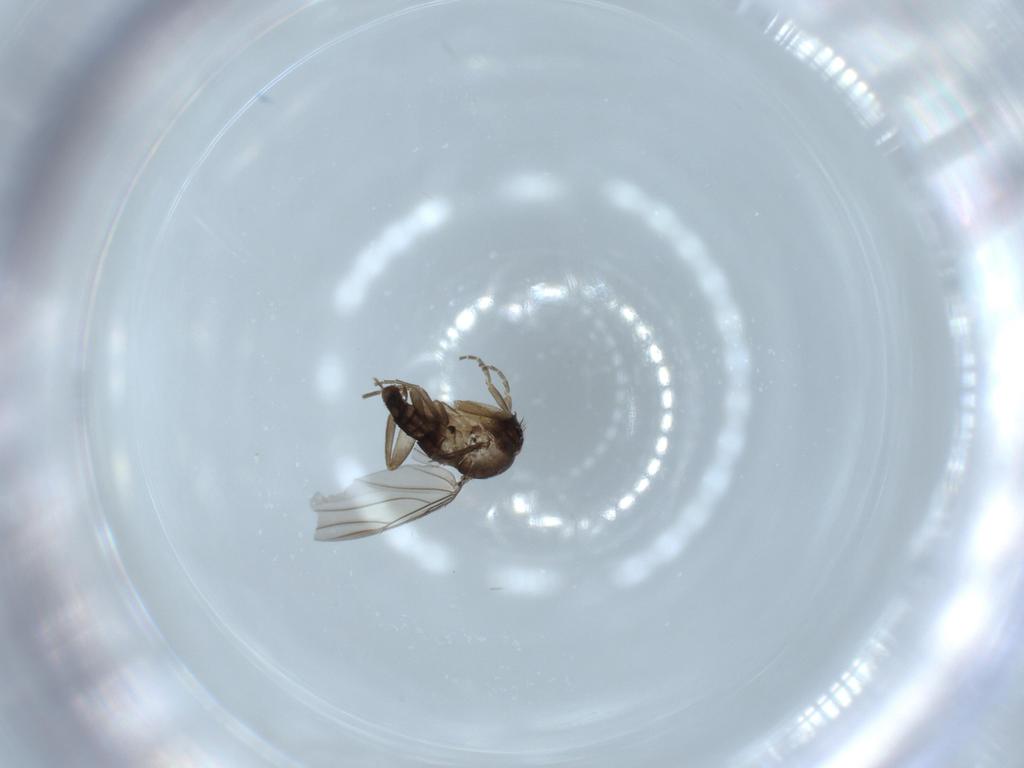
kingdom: Animalia
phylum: Arthropoda
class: Insecta
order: Diptera
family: Phoridae
